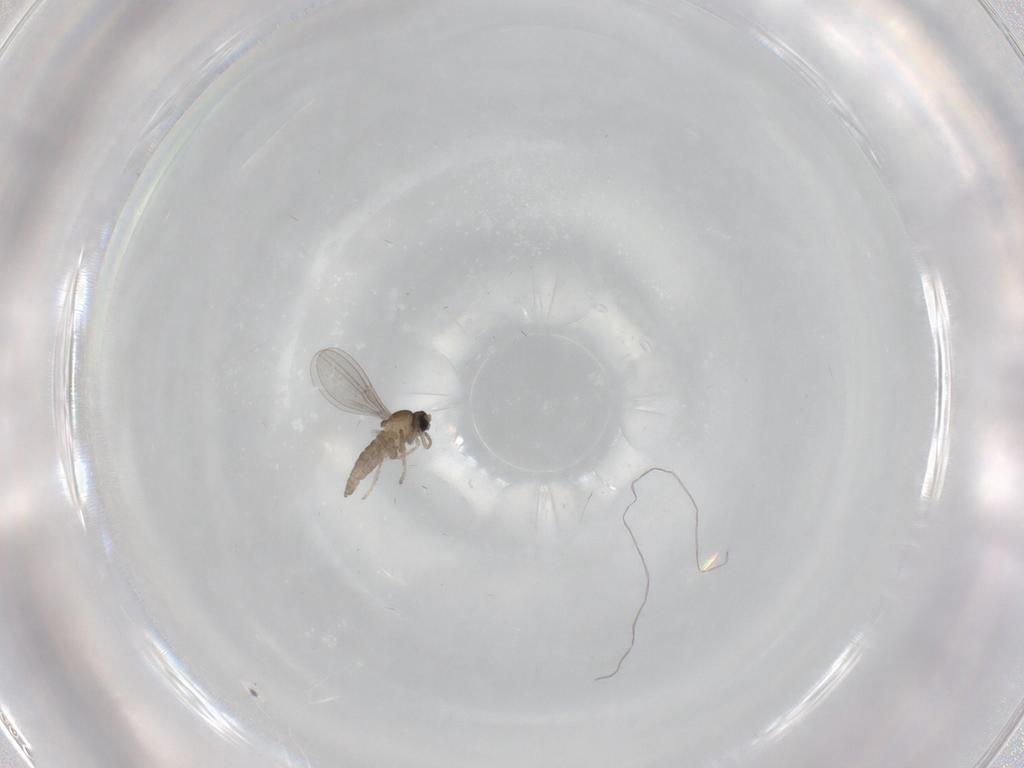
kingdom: Animalia
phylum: Arthropoda
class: Insecta
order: Diptera
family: Cecidomyiidae
